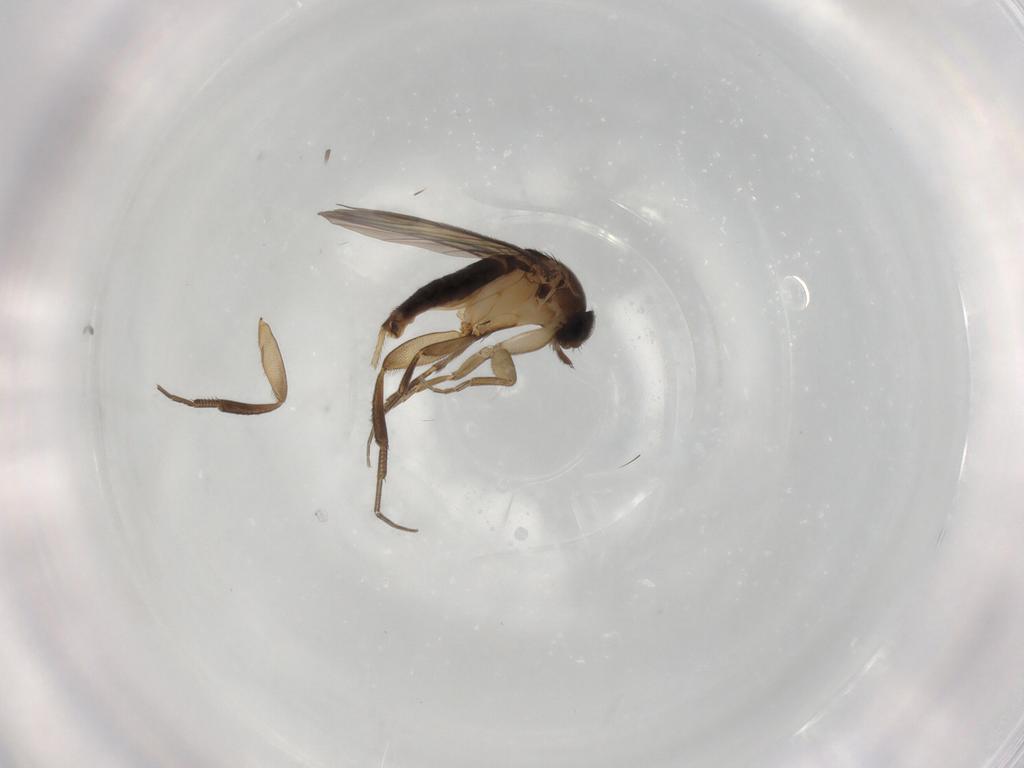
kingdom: Animalia
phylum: Arthropoda
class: Insecta
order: Diptera
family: Phoridae
